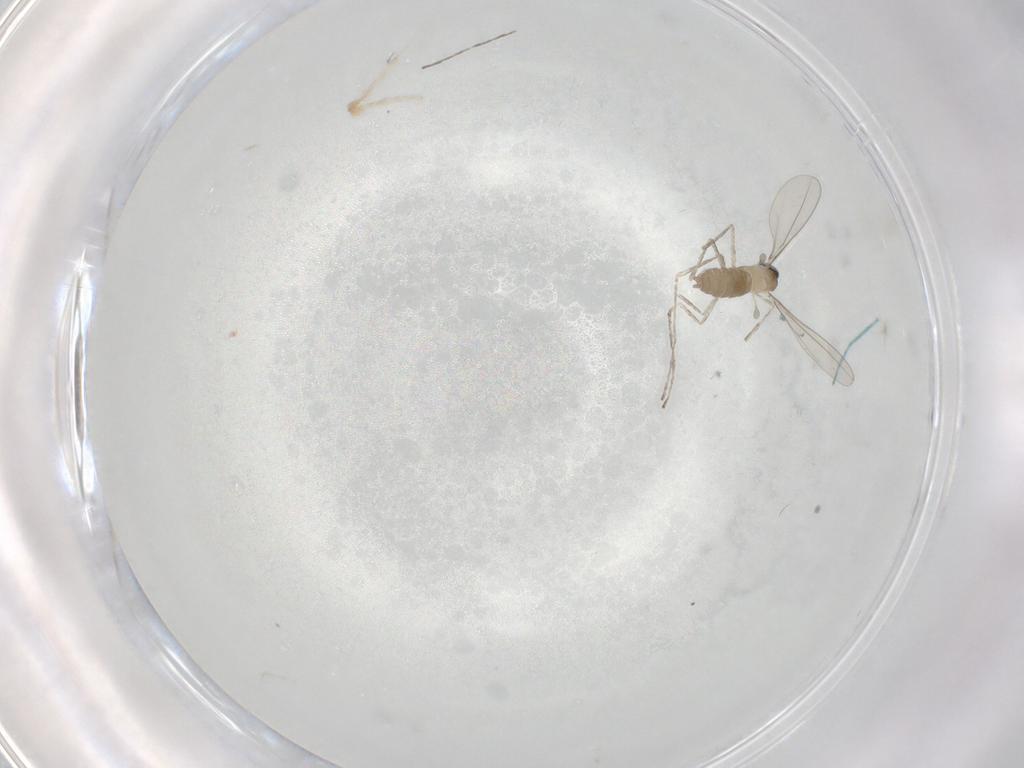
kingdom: Animalia
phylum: Arthropoda
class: Insecta
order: Diptera
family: Cecidomyiidae
